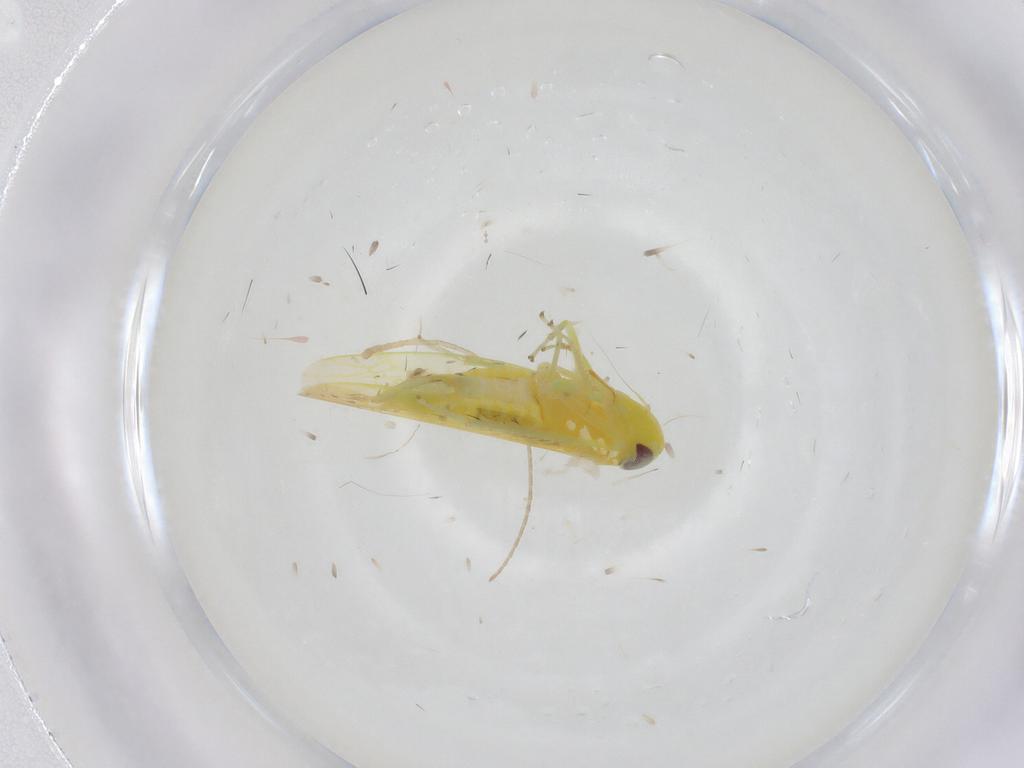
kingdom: Animalia
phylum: Arthropoda
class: Insecta
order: Hemiptera
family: Cicadellidae
